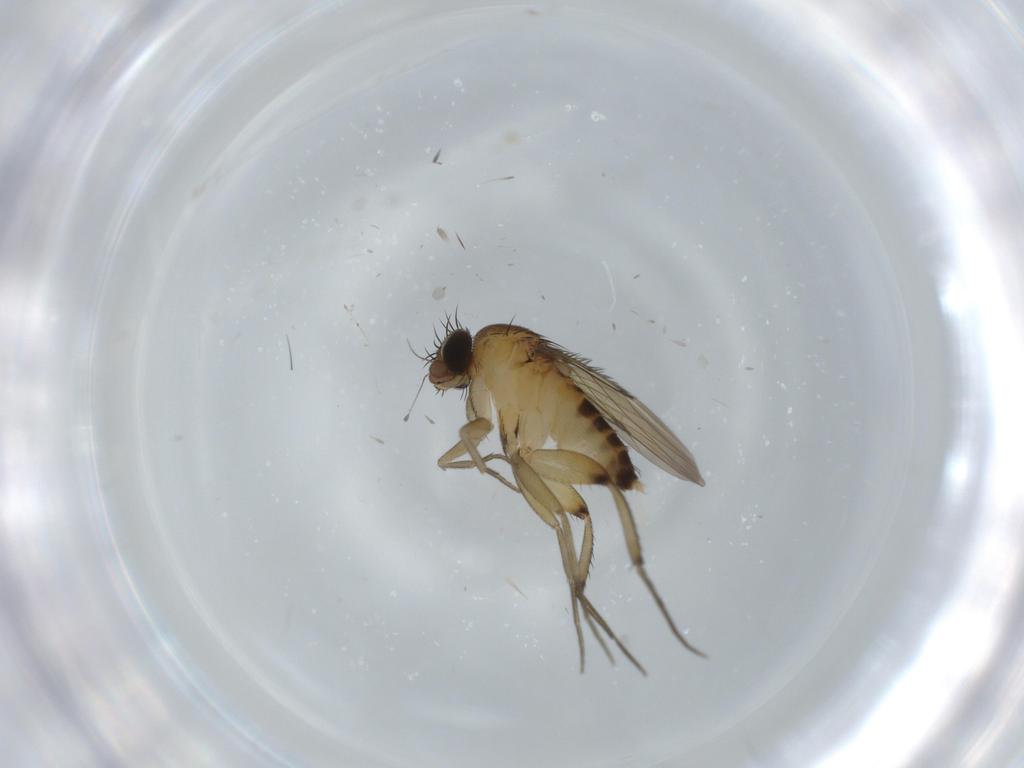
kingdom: Animalia
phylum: Arthropoda
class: Insecta
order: Diptera
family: Phoridae
